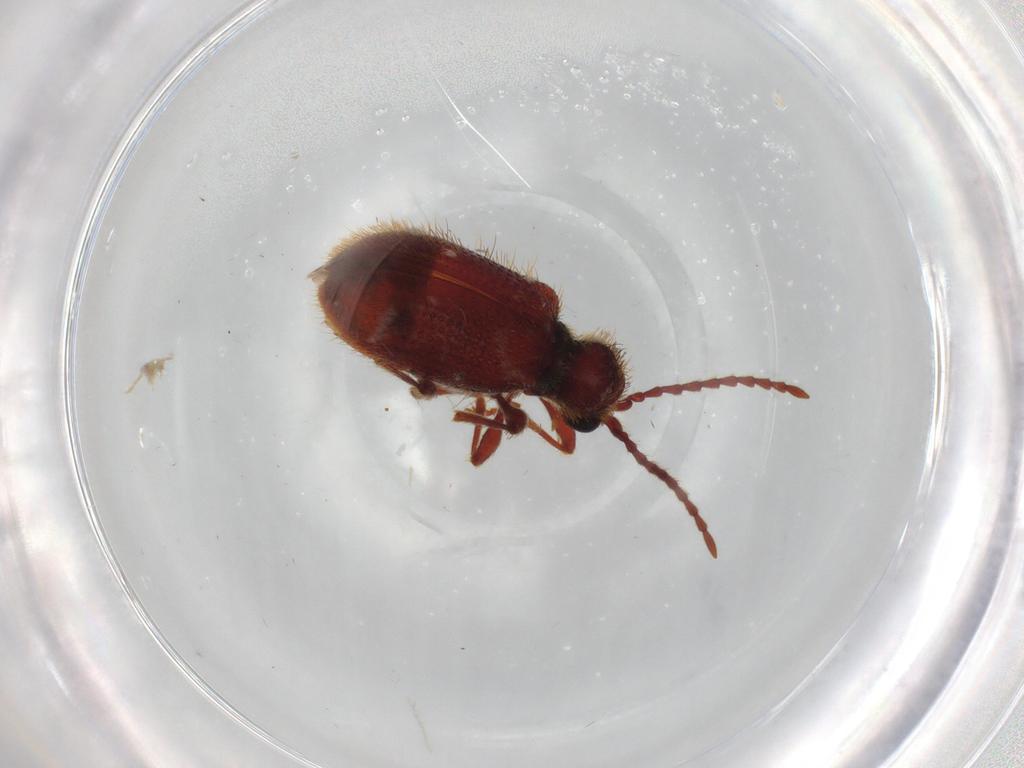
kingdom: Animalia
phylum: Arthropoda
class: Insecta
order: Coleoptera
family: Ptinidae
